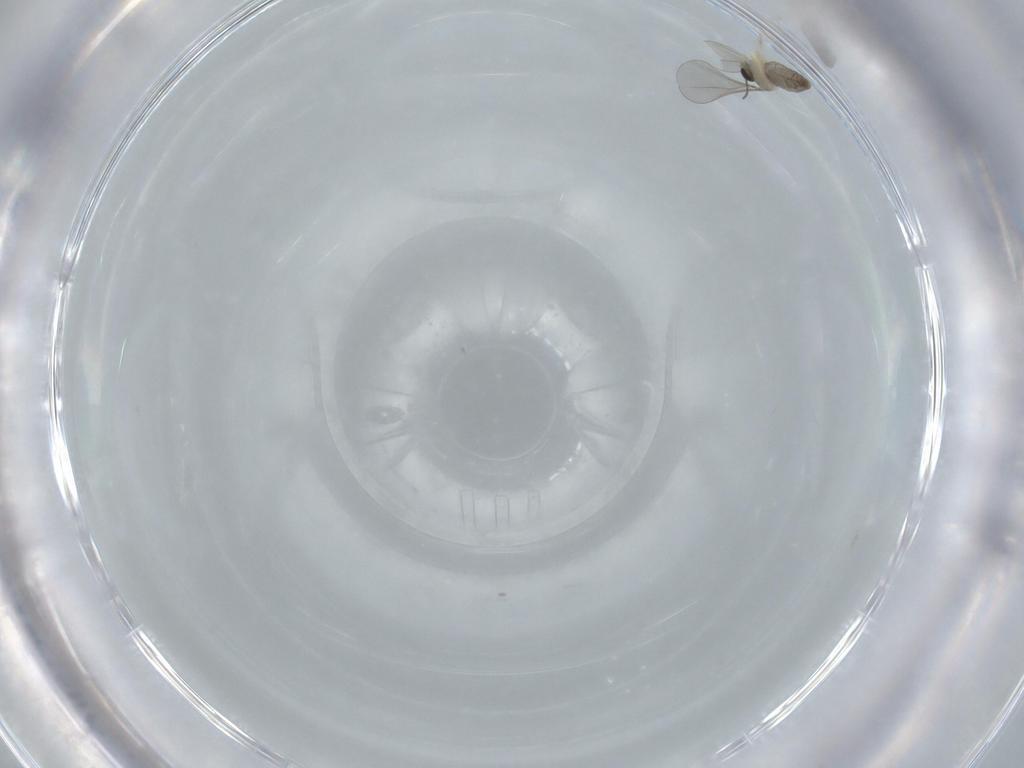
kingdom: Animalia
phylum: Arthropoda
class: Insecta
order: Diptera
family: Cecidomyiidae
